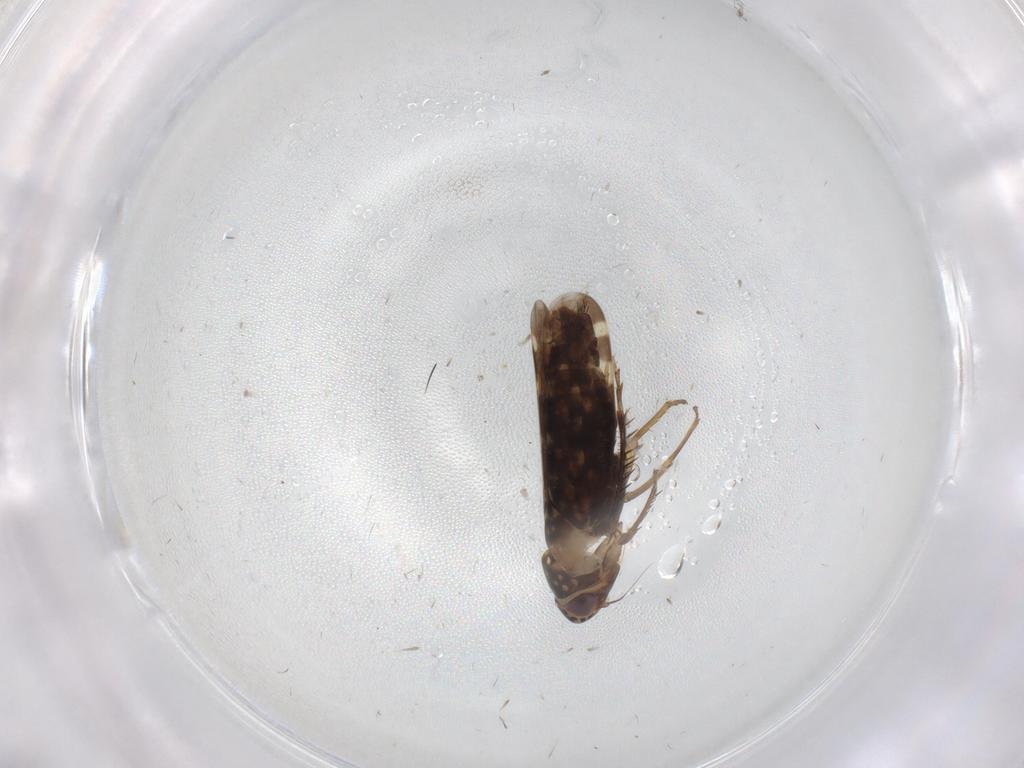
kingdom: Animalia
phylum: Arthropoda
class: Insecta
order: Hemiptera
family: Cicadellidae
